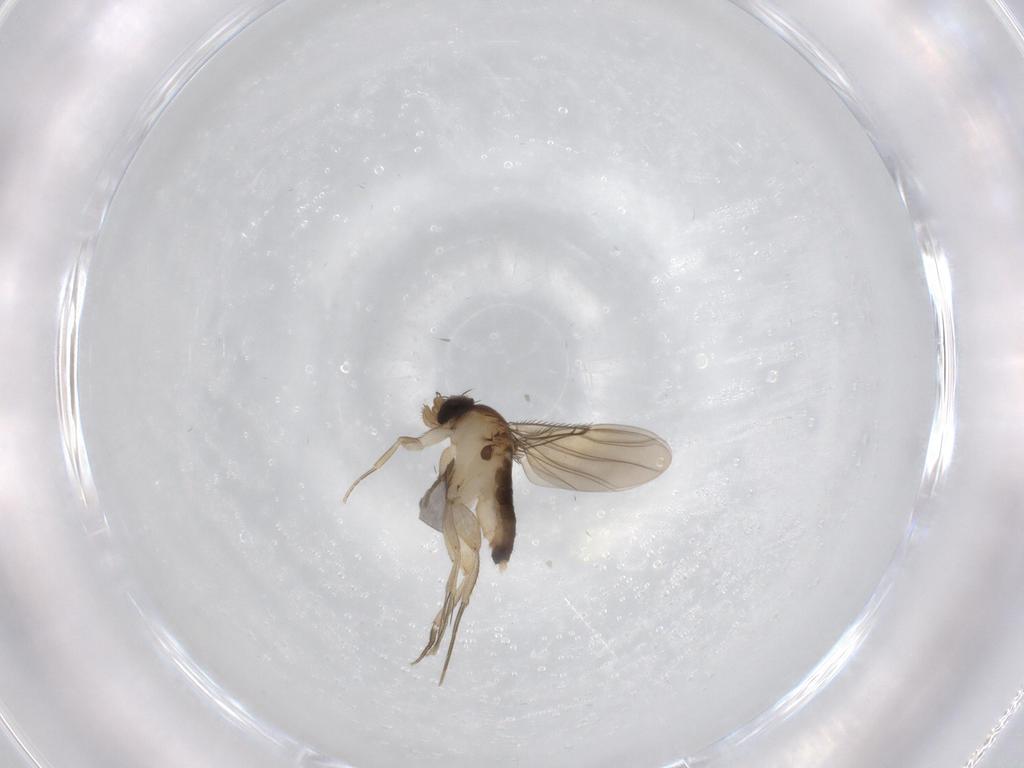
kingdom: Animalia
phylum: Arthropoda
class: Insecta
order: Diptera
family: Phoridae
